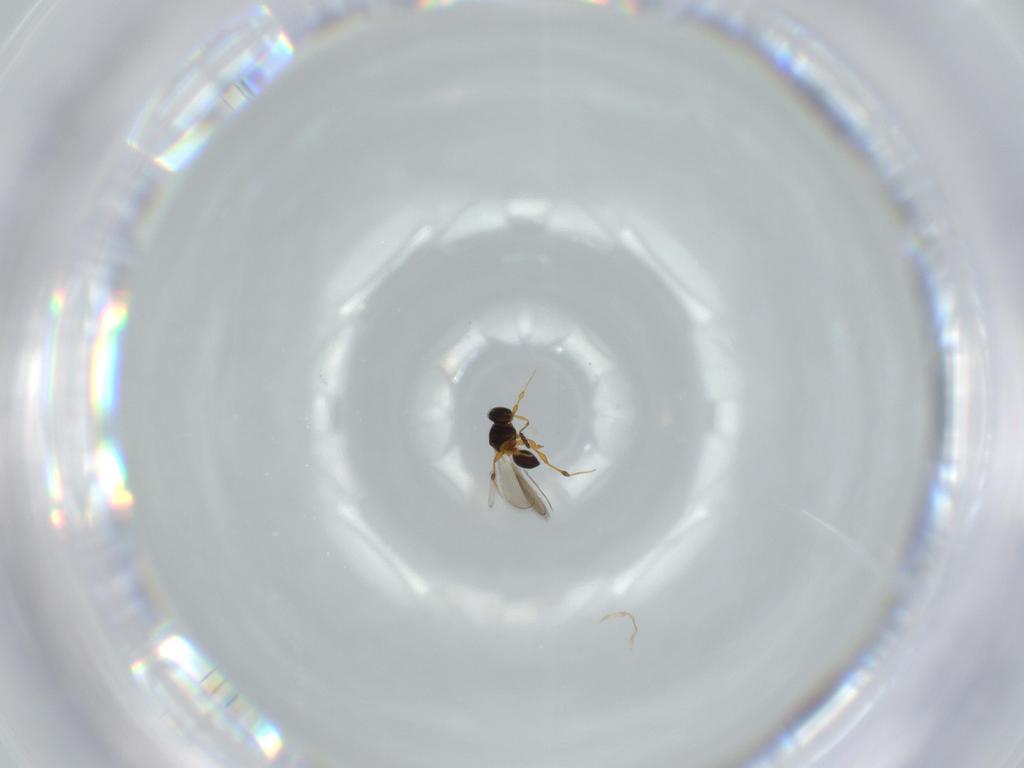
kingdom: Animalia
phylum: Arthropoda
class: Insecta
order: Hymenoptera
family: Platygastridae
